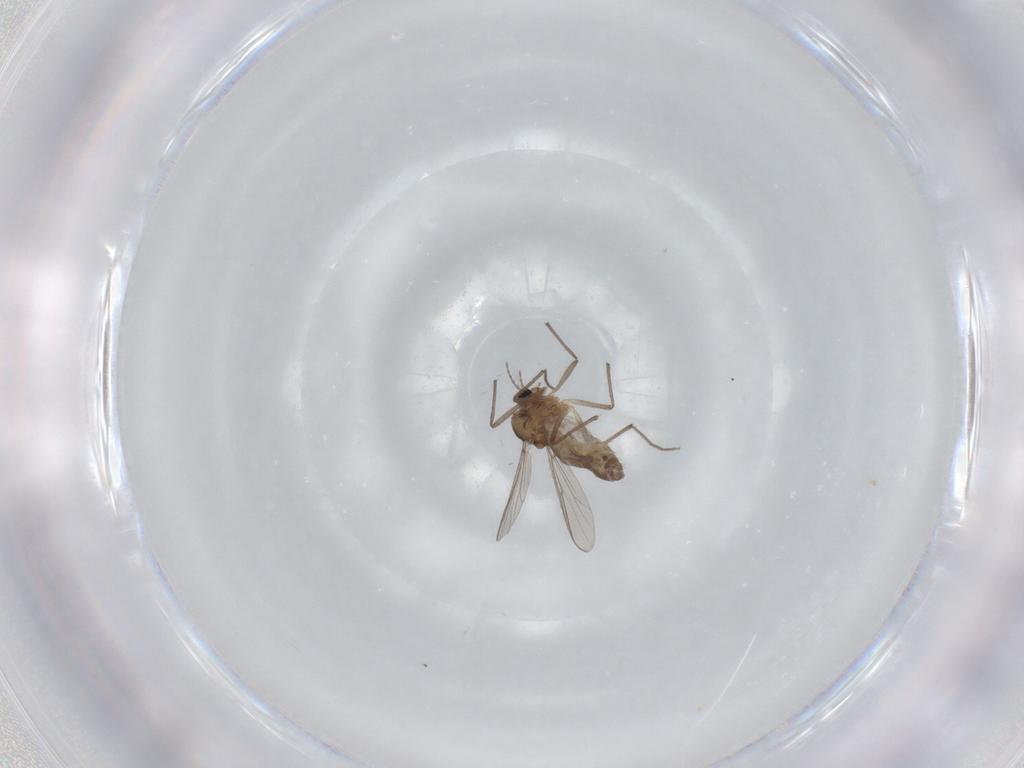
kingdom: Animalia
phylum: Arthropoda
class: Insecta
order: Diptera
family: Chironomidae
